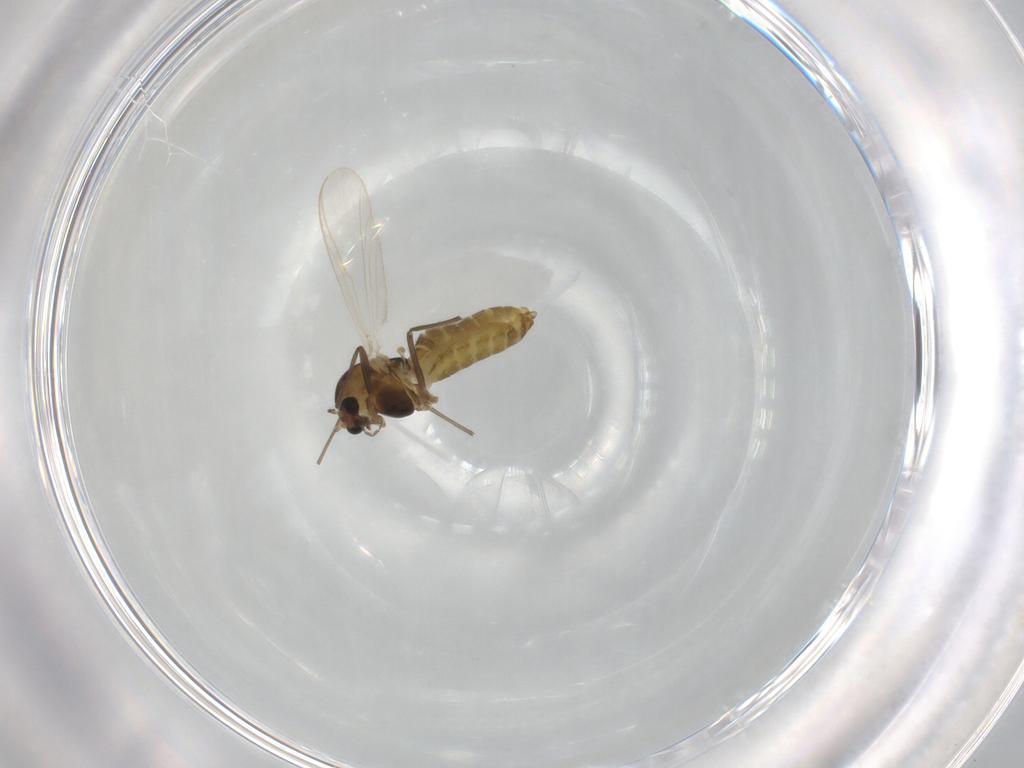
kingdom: Animalia
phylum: Arthropoda
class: Insecta
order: Diptera
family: Chironomidae
